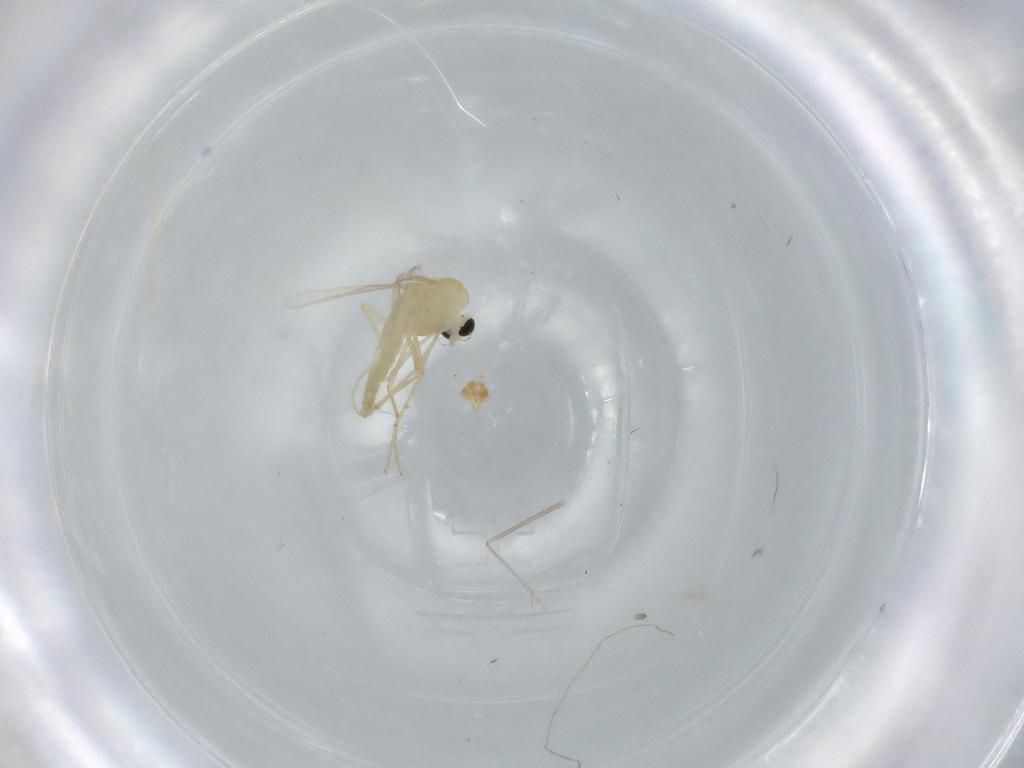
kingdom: Animalia
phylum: Arthropoda
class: Insecta
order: Diptera
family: Chironomidae
